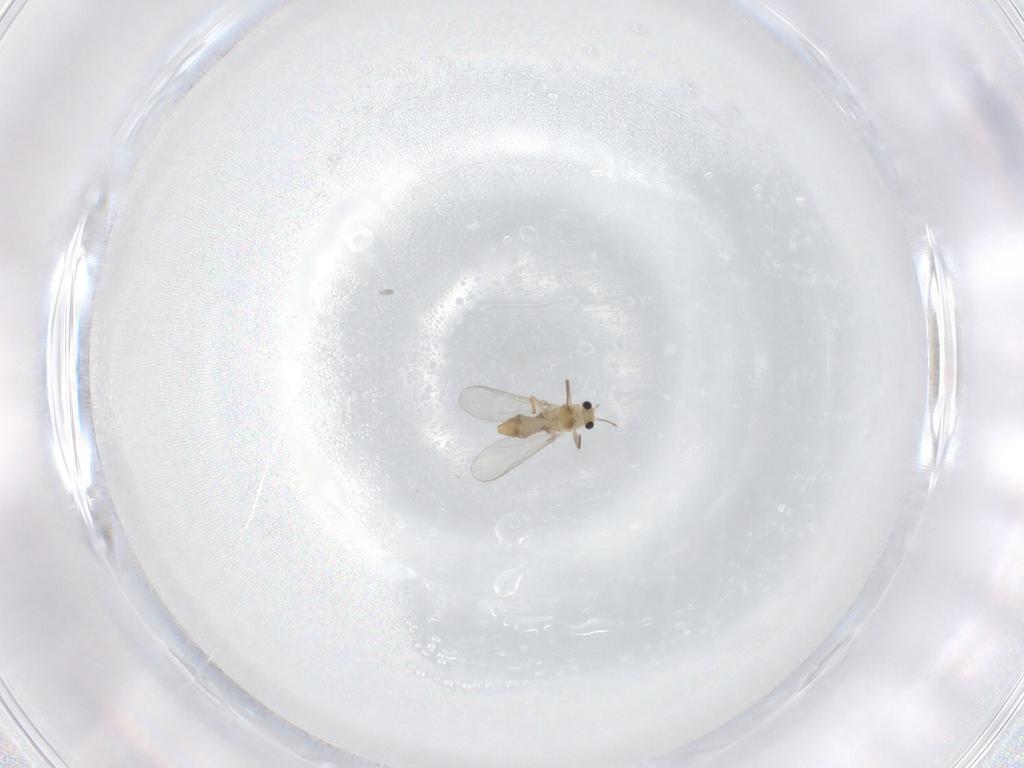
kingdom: Animalia
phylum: Arthropoda
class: Insecta
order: Diptera
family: Chironomidae
